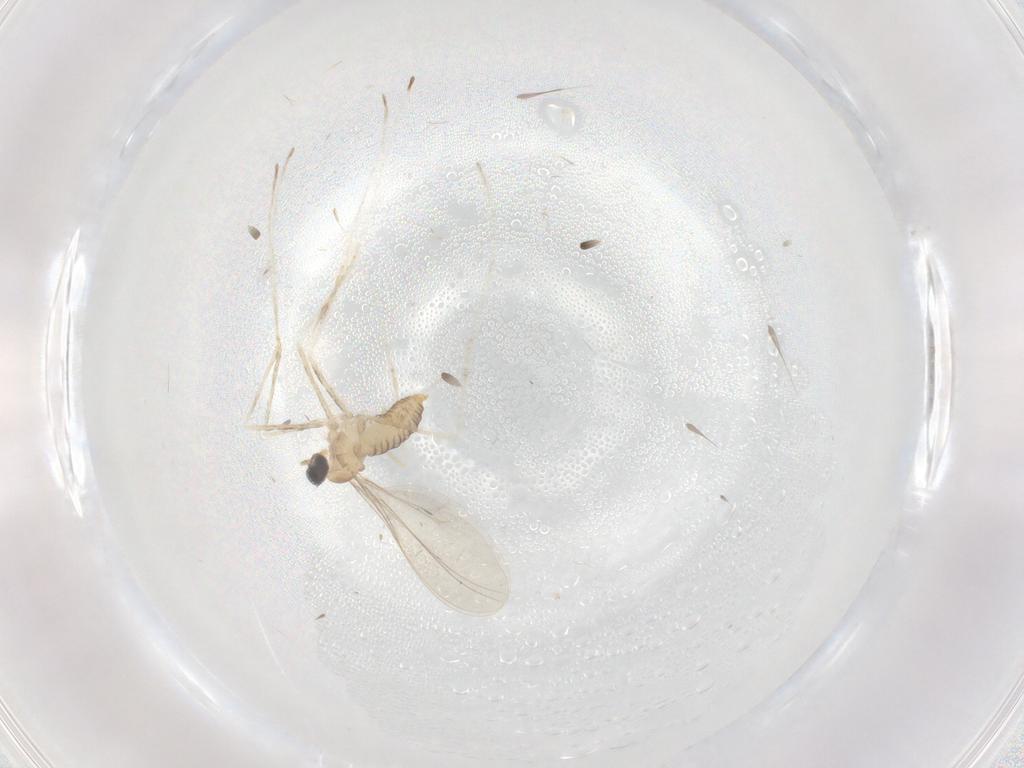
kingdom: Animalia
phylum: Arthropoda
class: Insecta
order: Diptera
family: Cecidomyiidae
